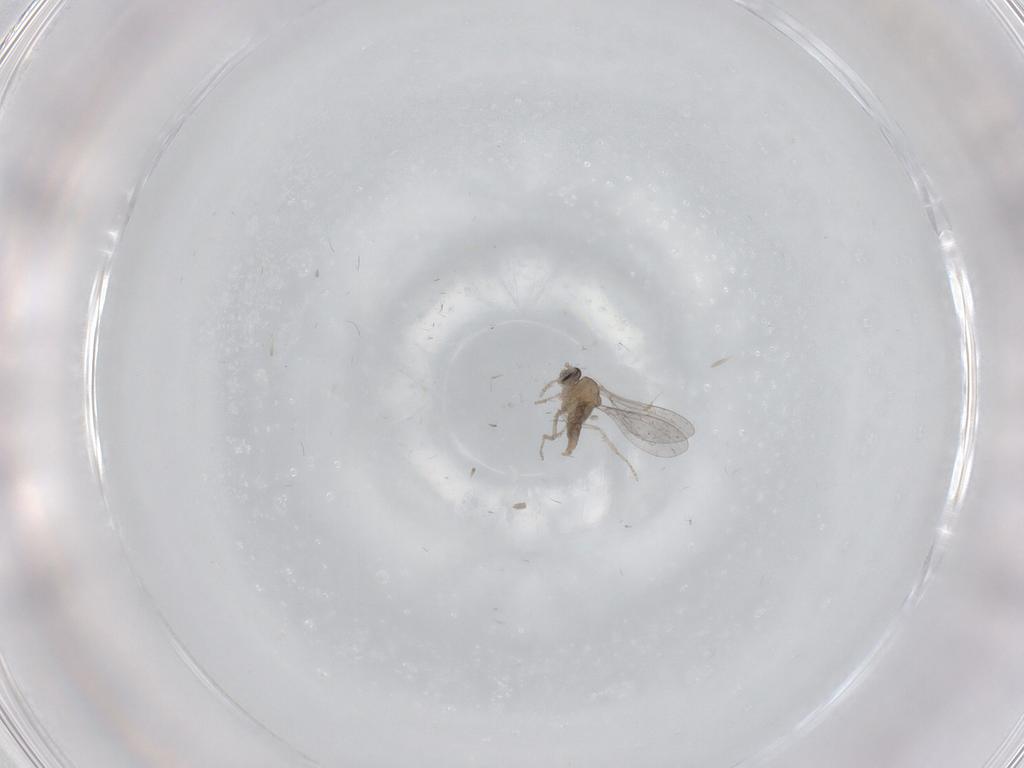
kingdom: Animalia
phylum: Arthropoda
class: Insecta
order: Diptera
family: Cecidomyiidae
